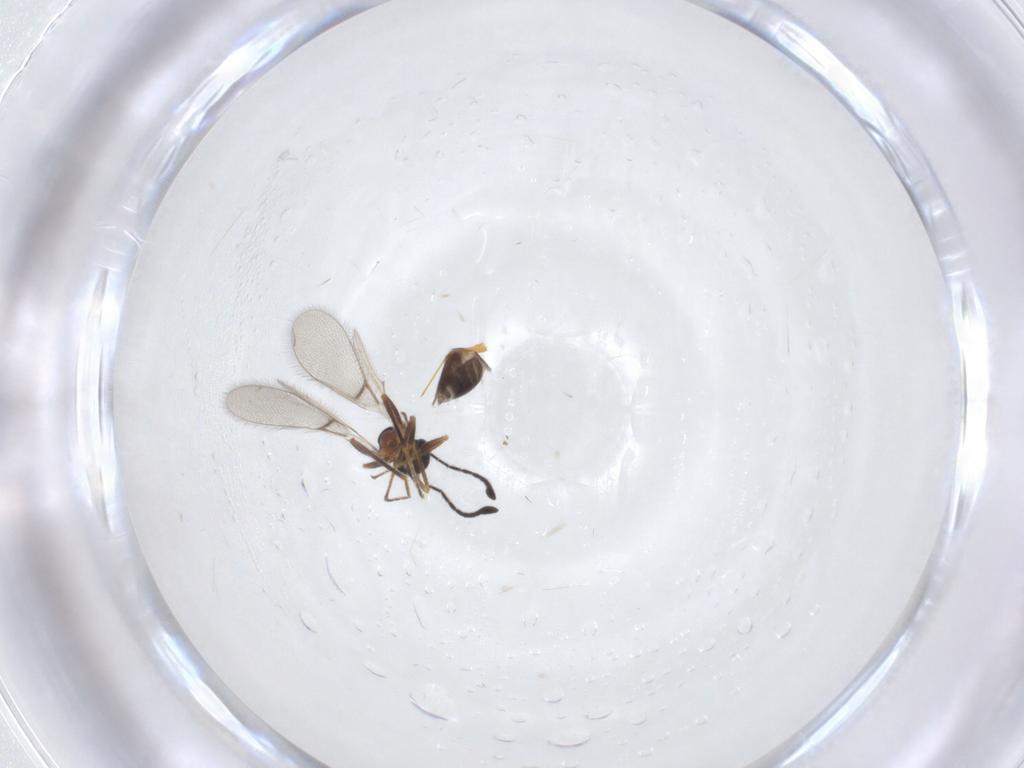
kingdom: Animalia
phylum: Arthropoda
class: Insecta
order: Hymenoptera
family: Mymaridae
